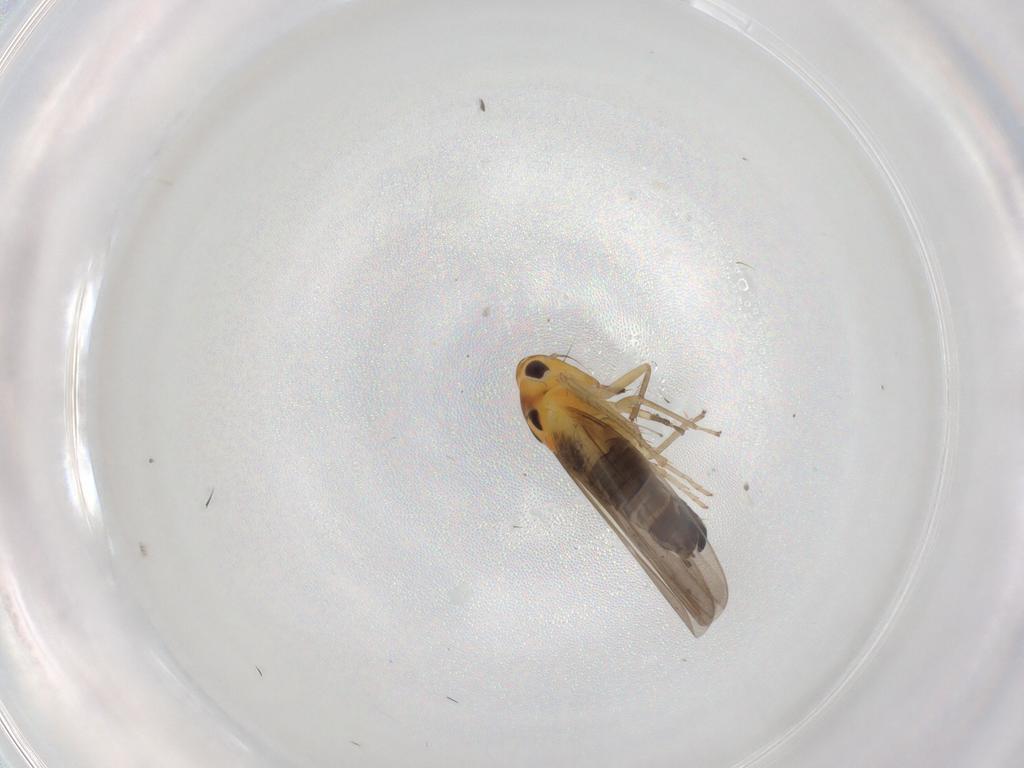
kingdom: Animalia
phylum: Arthropoda
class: Insecta
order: Hemiptera
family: Cicadellidae
